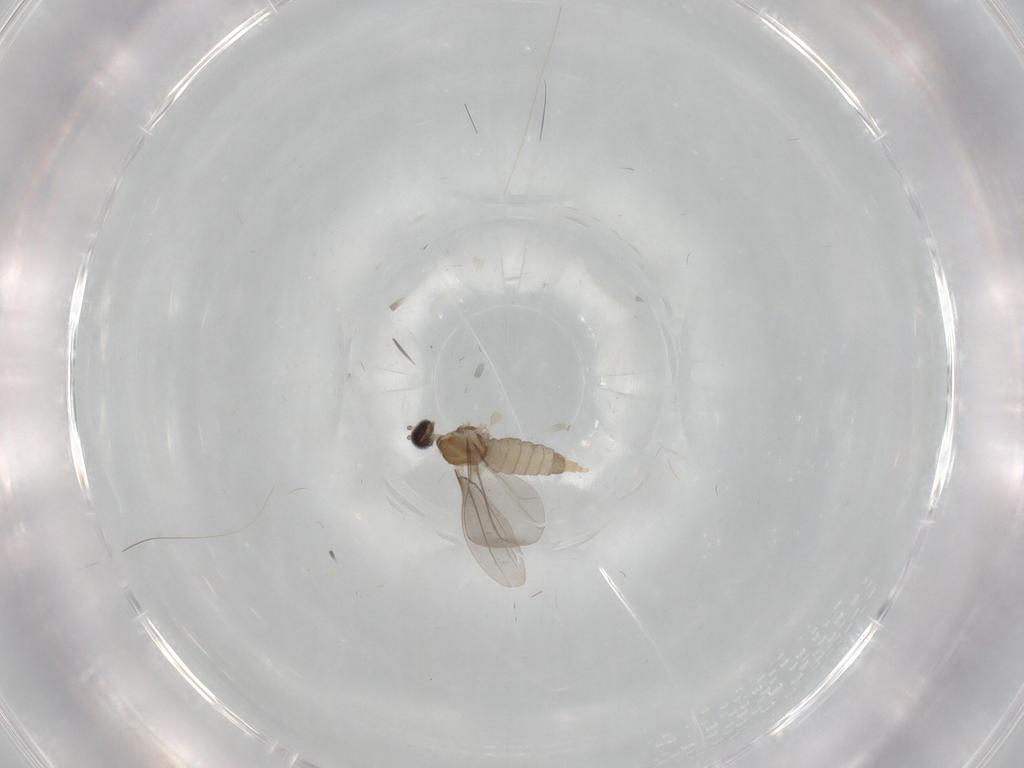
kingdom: Animalia
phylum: Arthropoda
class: Insecta
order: Diptera
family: Cecidomyiidae
